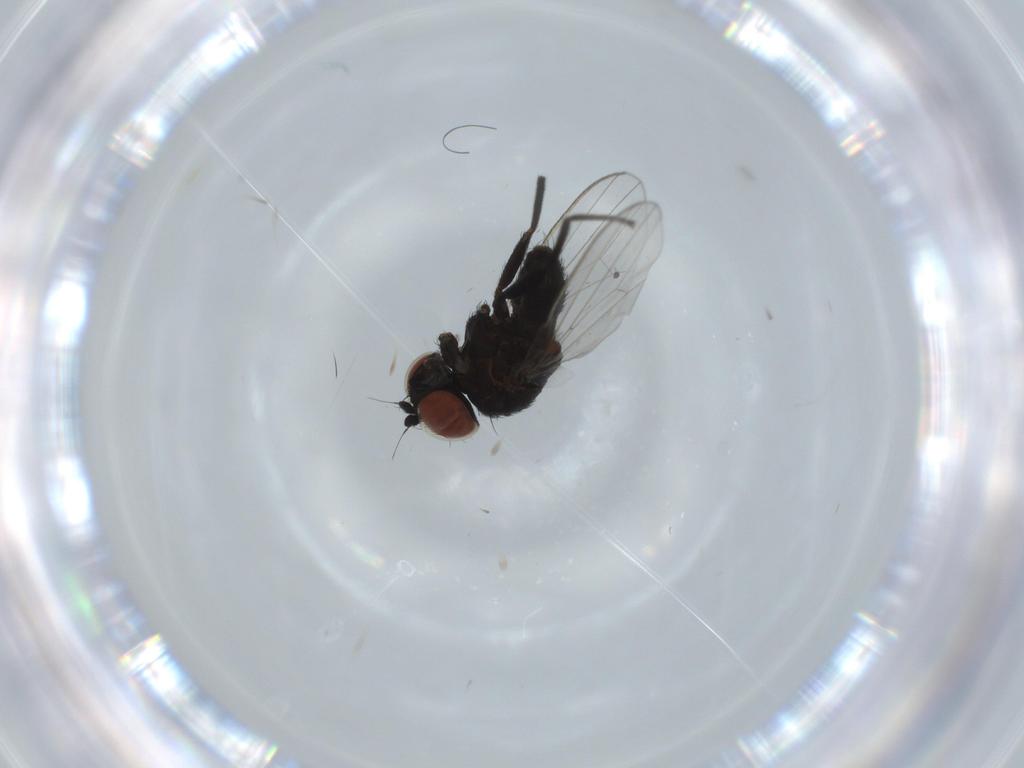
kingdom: Animalia
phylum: Arthropoda
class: Insecta
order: Diptera
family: Milichiidae
